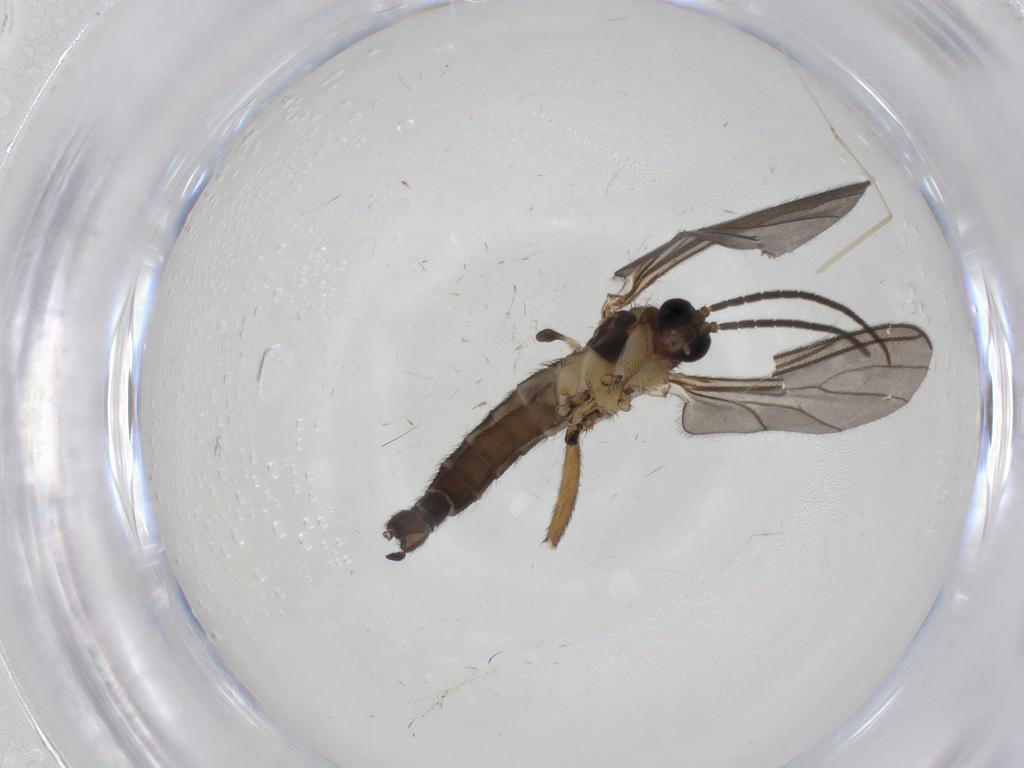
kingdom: Animalia
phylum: Arthropoda
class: Insecta
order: Diptera
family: Sciaridae
